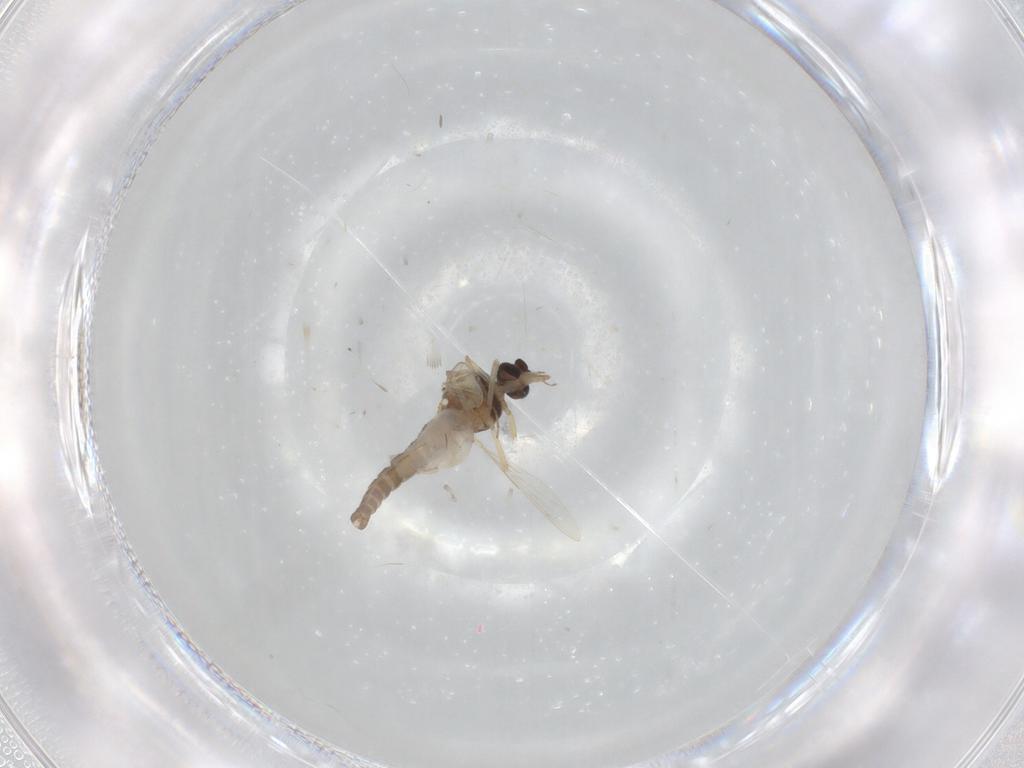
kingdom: Animalia
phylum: Arthropoda
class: Insecta
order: Diptera
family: Ceratopogonidae
